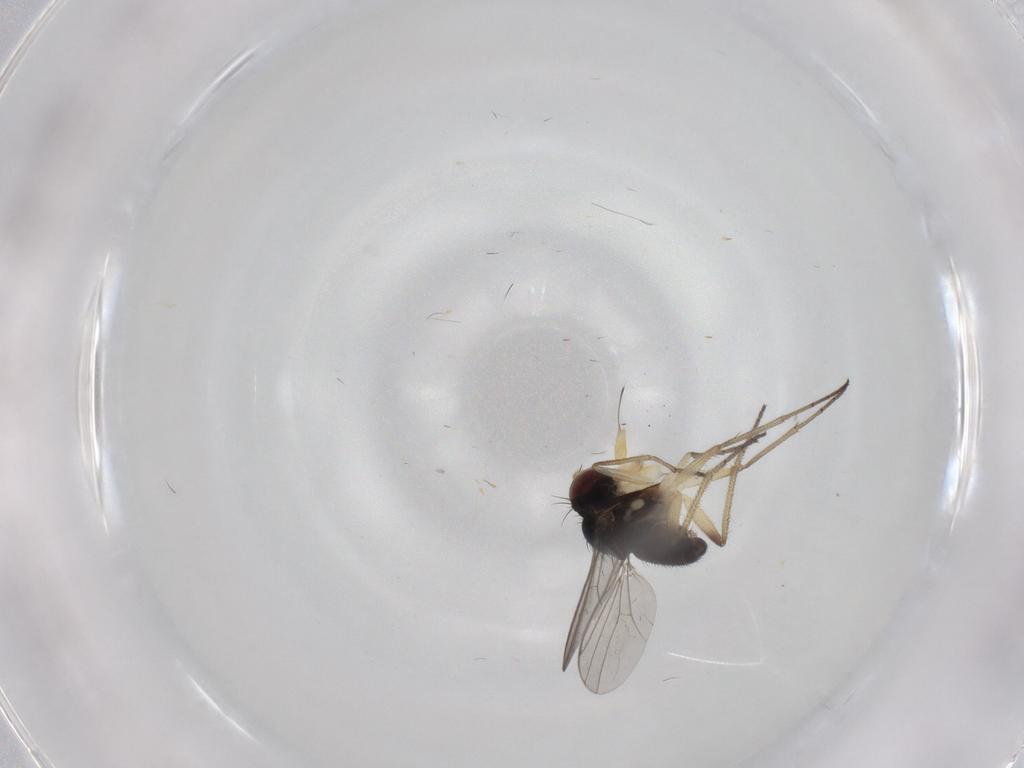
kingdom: Animalia
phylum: Arthropoda
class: Insecta
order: Diptera
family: Dolichopodidae
